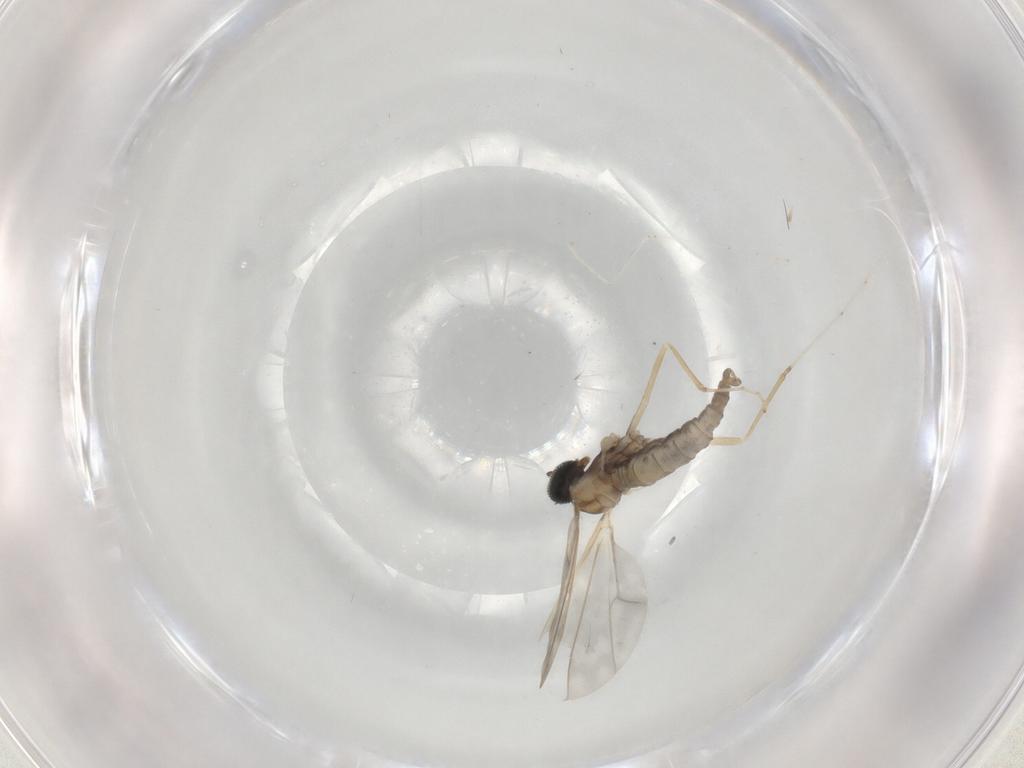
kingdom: Animalia
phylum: Arthropoda
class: Insecta
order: Diptera
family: Cecidomyiidae
